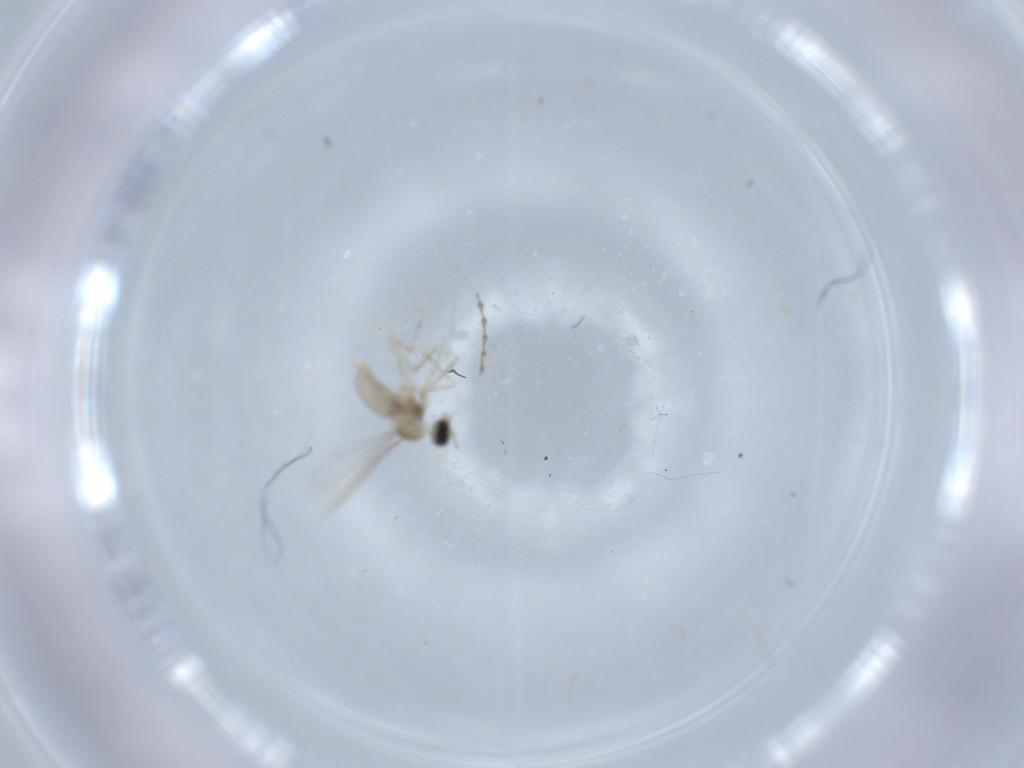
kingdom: Animalia
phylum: Arthropoda
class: Insecta
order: Diptera
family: Cecidomyiidae
